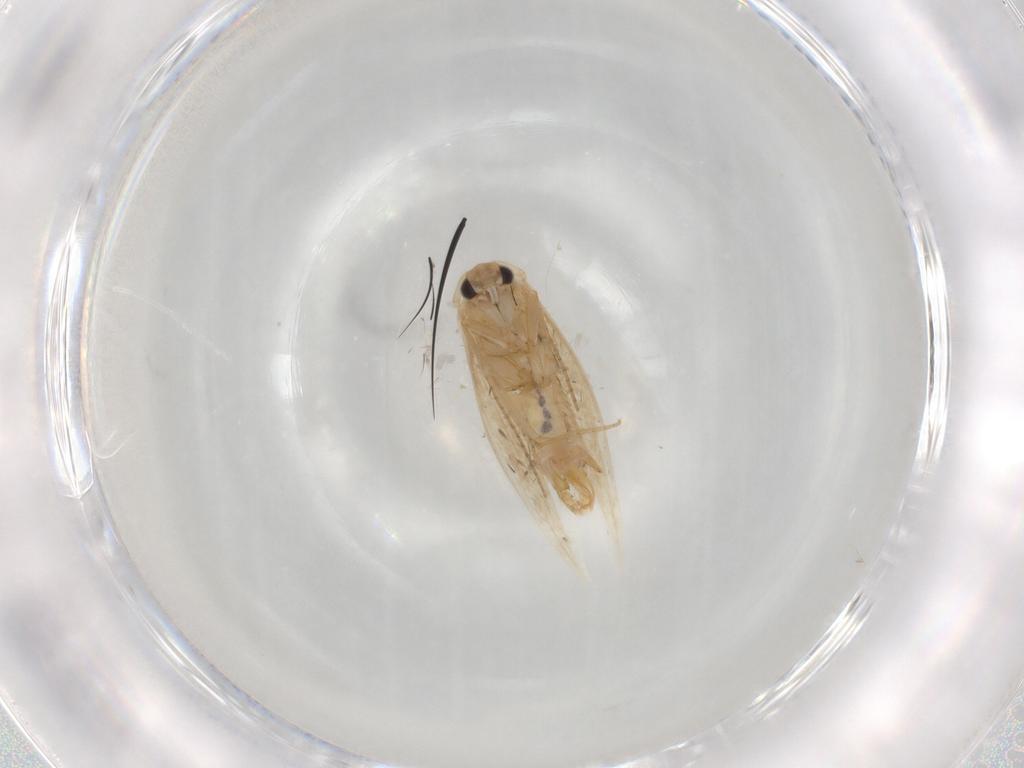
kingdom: Animalia
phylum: Arthropoda
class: Insecta
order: Lepidoptera
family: Bucculatricidae
